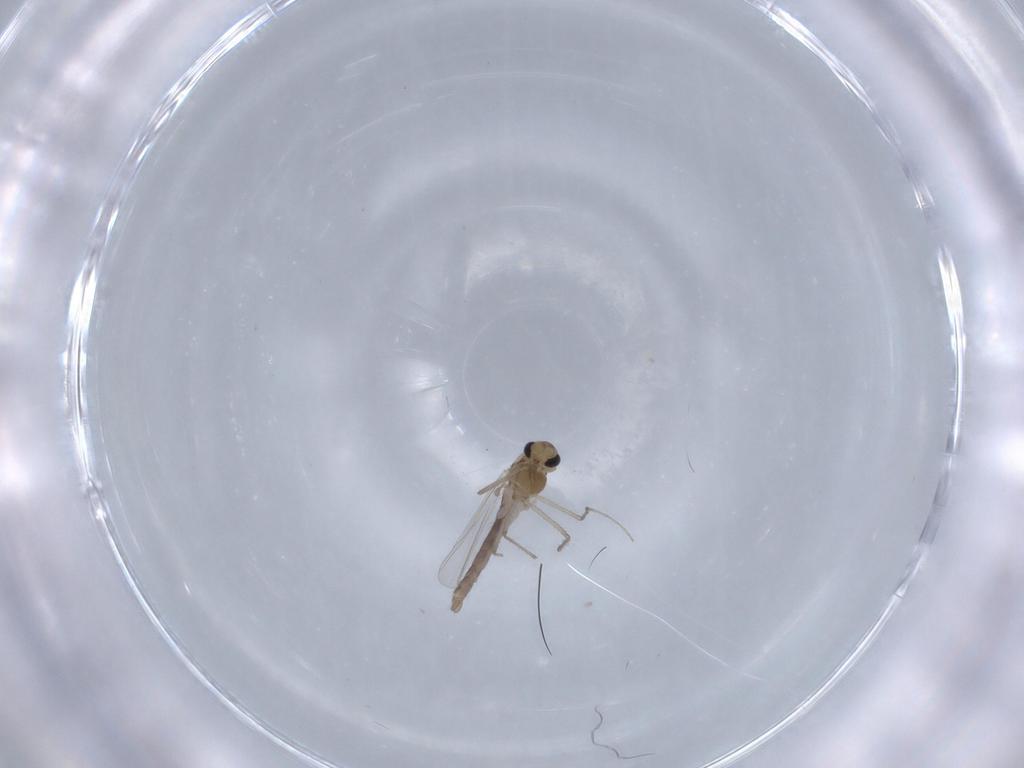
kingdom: Animalia
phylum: Arthropoda
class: Insecta
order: Diptera
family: Chironomidae
